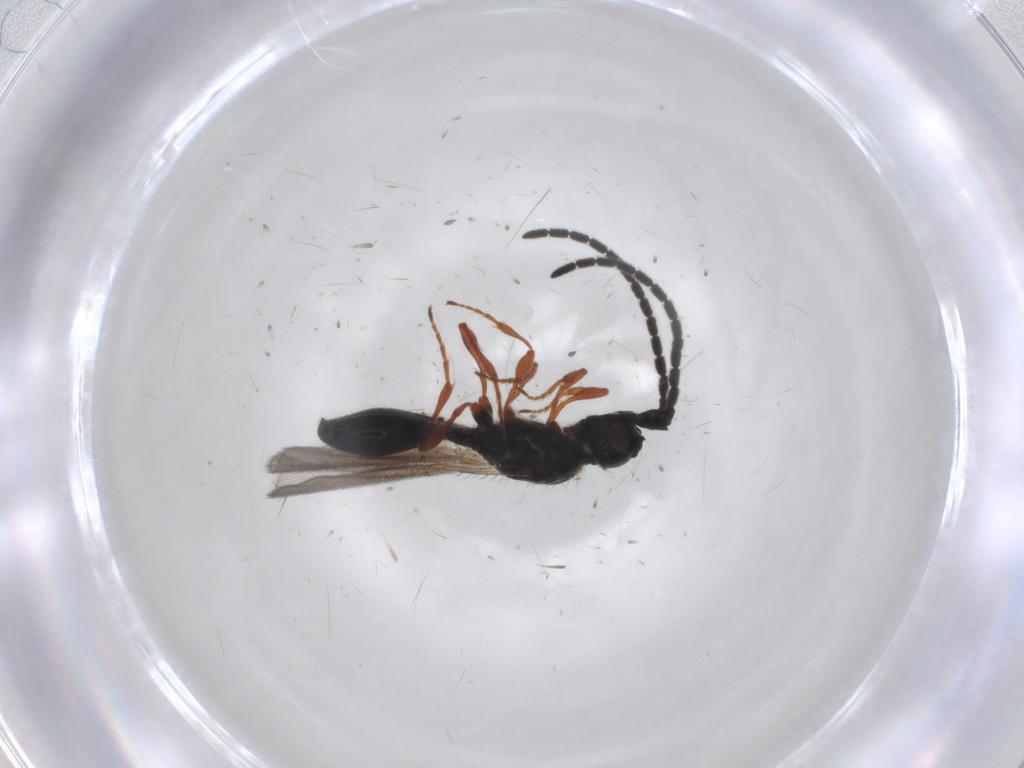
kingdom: Animalia
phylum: Arthropoda
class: Insecta
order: Hymenoptera
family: Diapriidae
